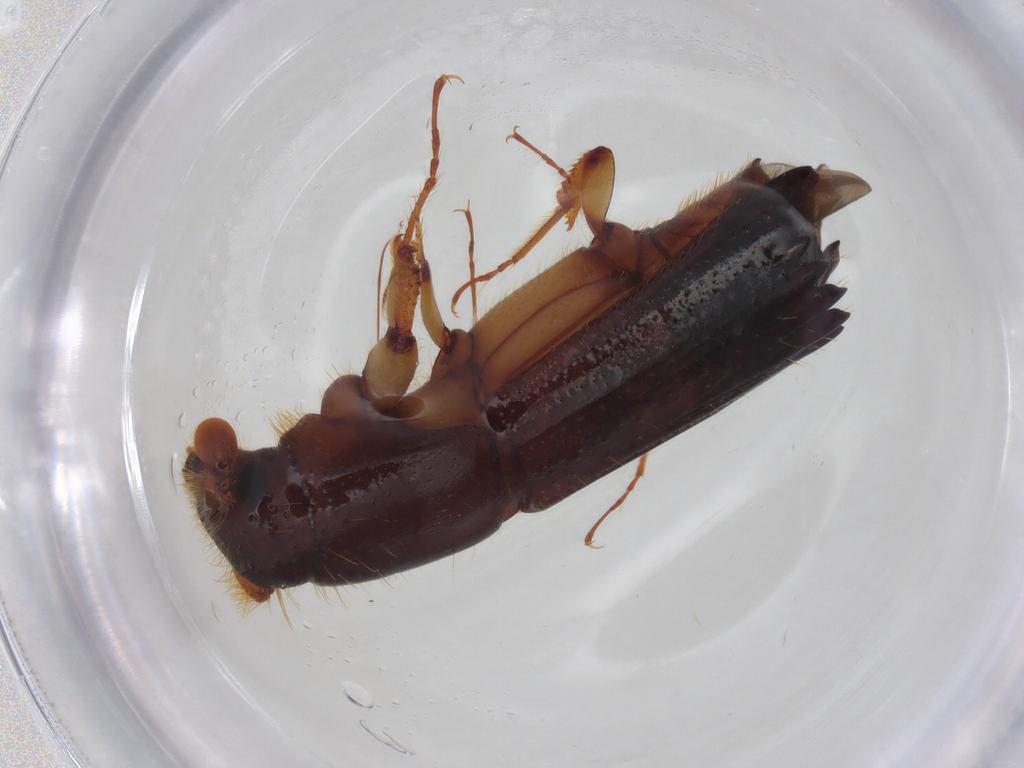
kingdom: Animalia
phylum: Arthropoda
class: Insecta
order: Coleoptera
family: Curculionidae
